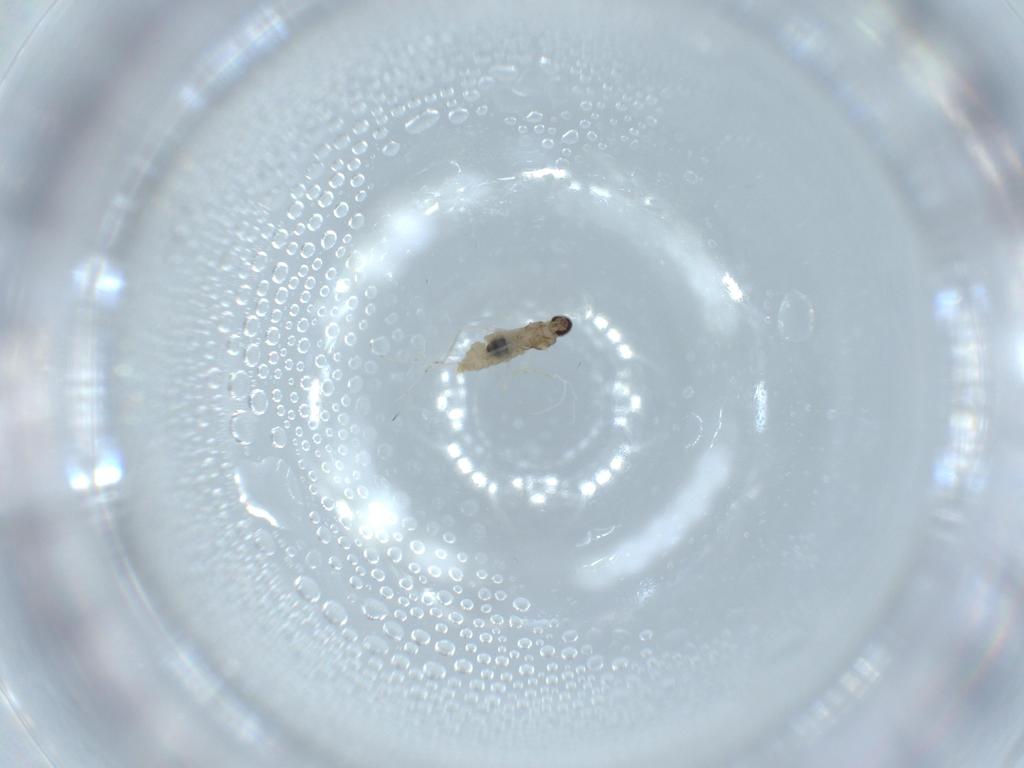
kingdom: Animalia
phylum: Arthropoda
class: Insecta
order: Diptera
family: Cecidomyiidae
